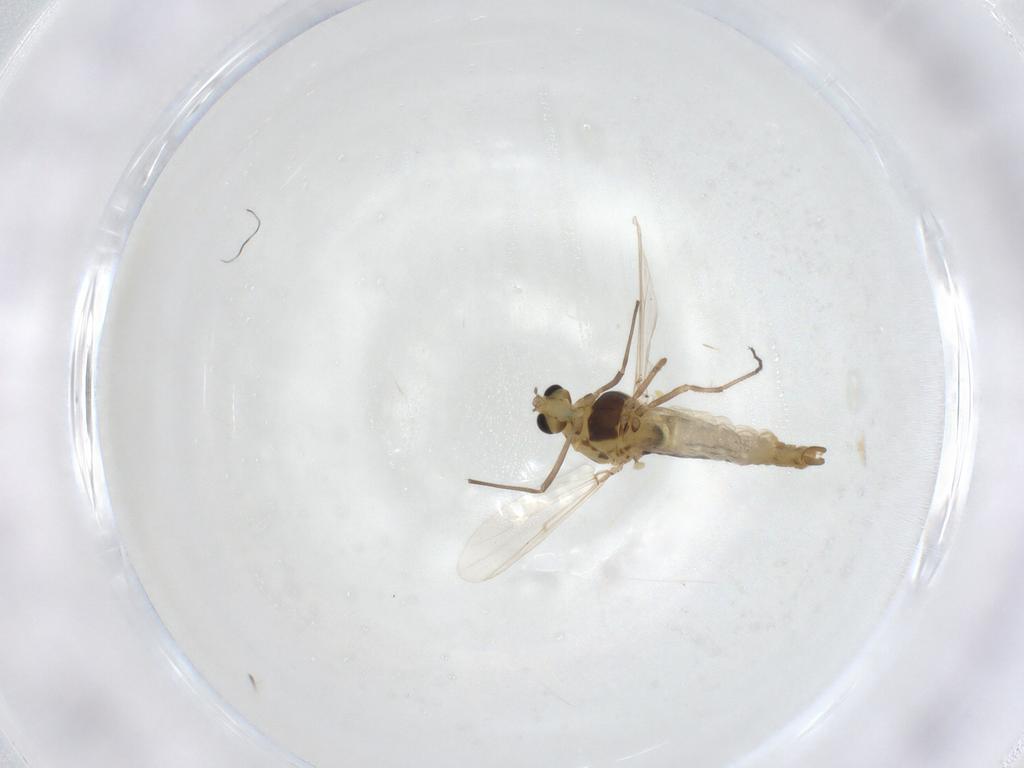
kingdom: Animalia
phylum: Arthropoda
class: Insecta
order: Diptera
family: Chironomidae
